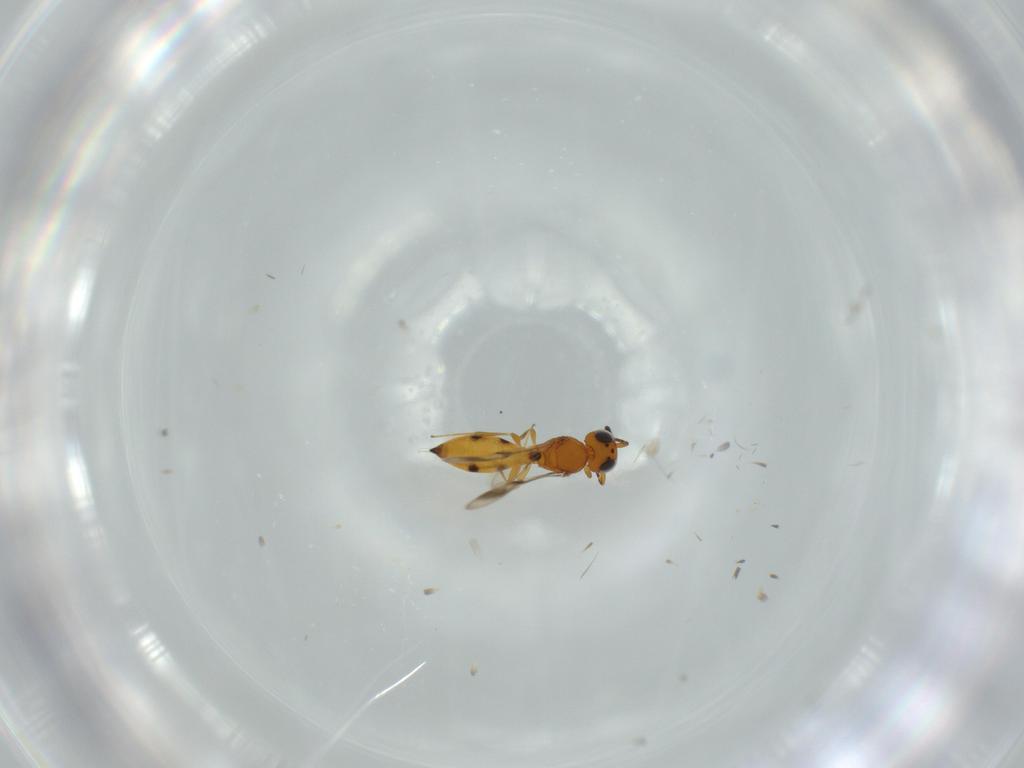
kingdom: Animalia
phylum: Arthropoda
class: Insecta
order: Hymenoptera
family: Scelionidae
